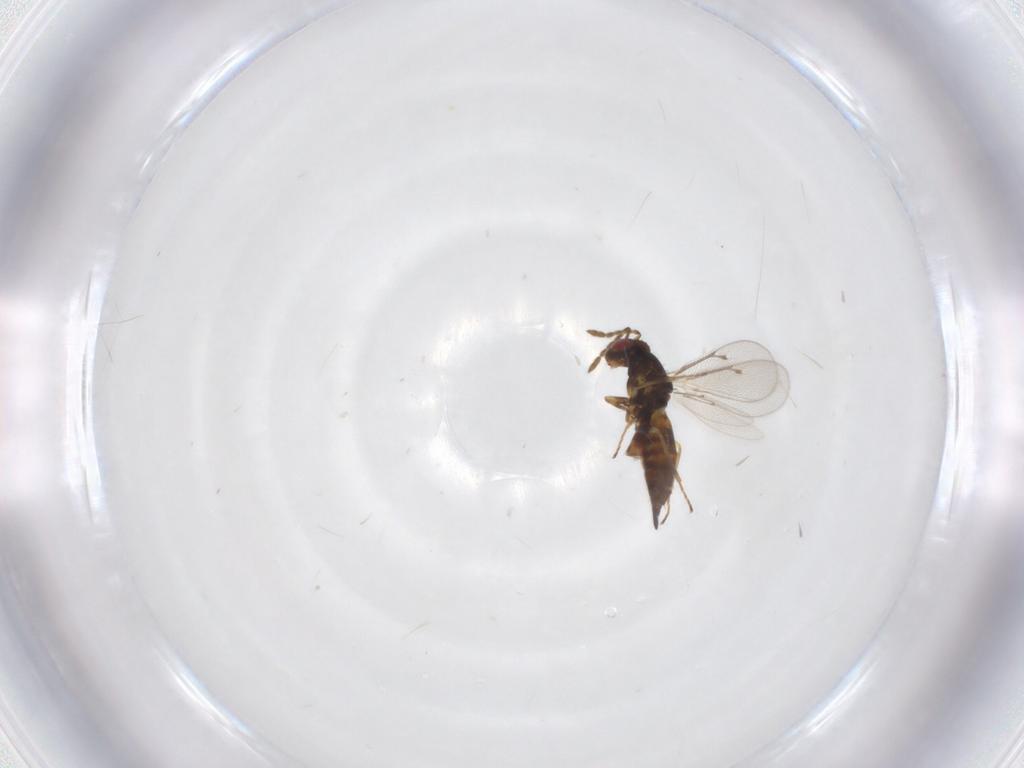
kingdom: Animalia
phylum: Arthropoda
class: Insecta
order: Hymenoptera
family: Eulophidae
